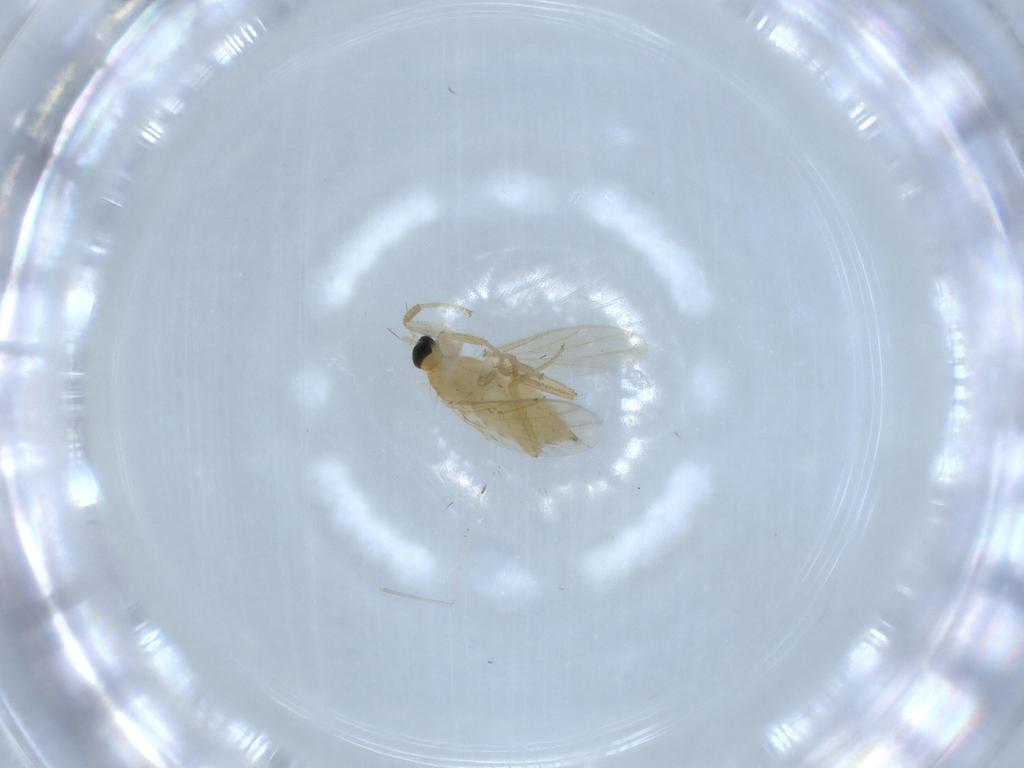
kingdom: Animalia
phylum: Arthropoda
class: Insecta
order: Diptera
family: Hybotidae
